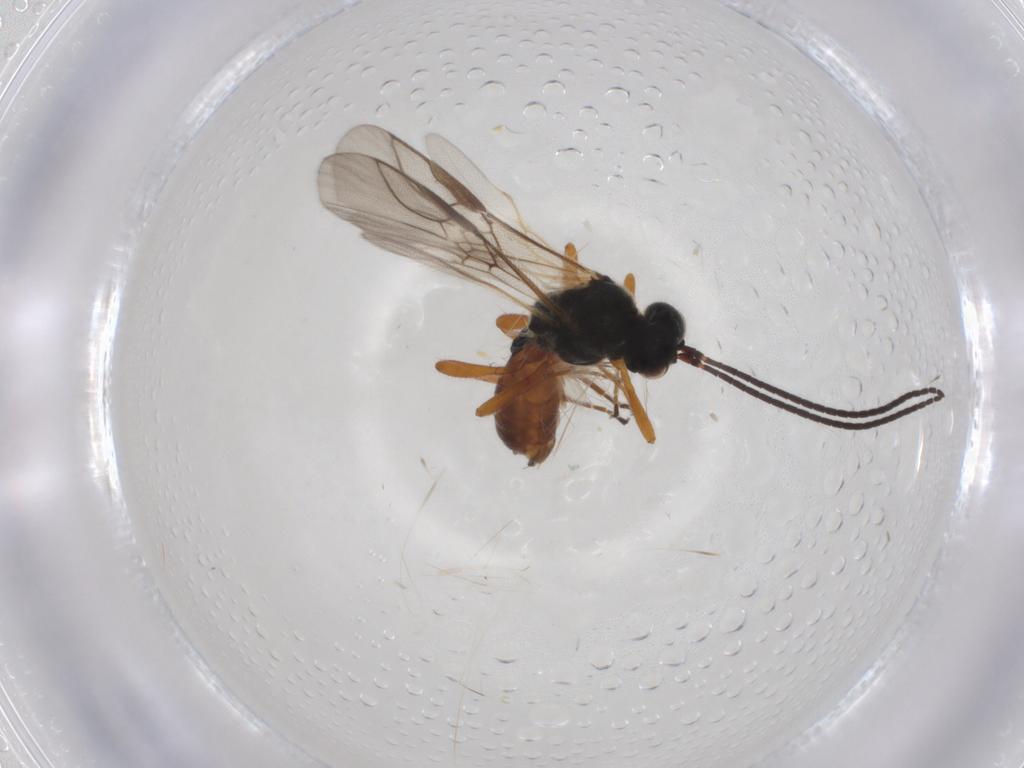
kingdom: Animalia
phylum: Arthropoda
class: Insecta
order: Hymenoptera
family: Braconidae
